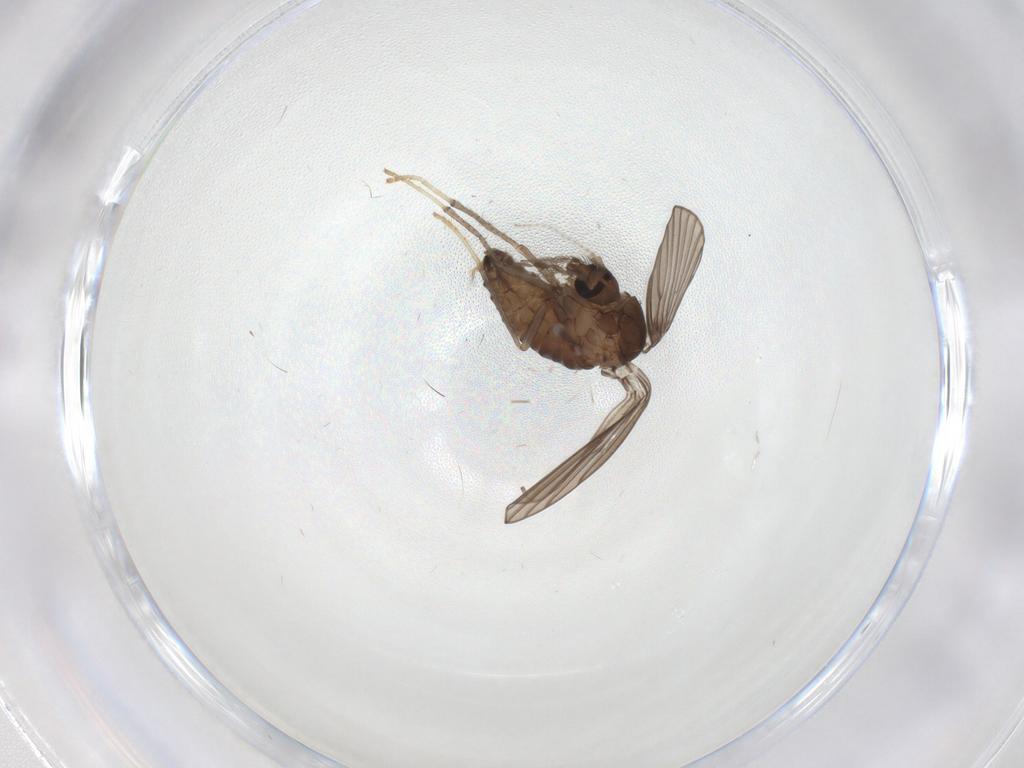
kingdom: Animalia
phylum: Arthropoda
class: Insecta
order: Diptera
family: Psychodidae
